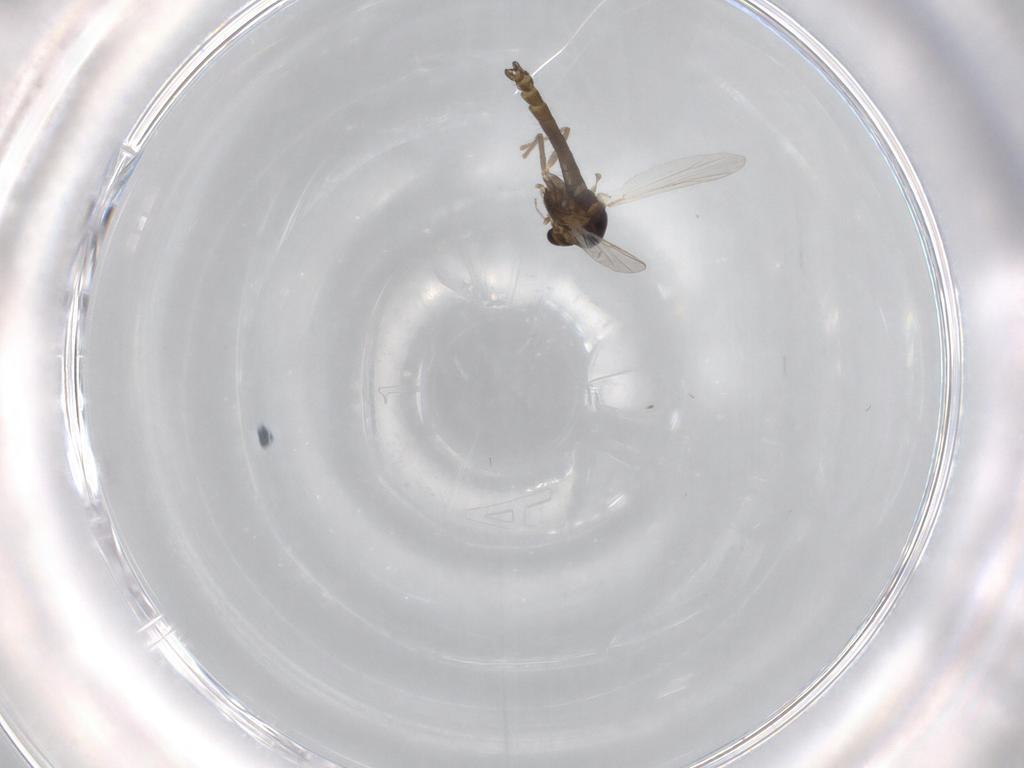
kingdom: Animalia
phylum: Arthropoda
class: Insecta
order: Diptera
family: Chironomidae
